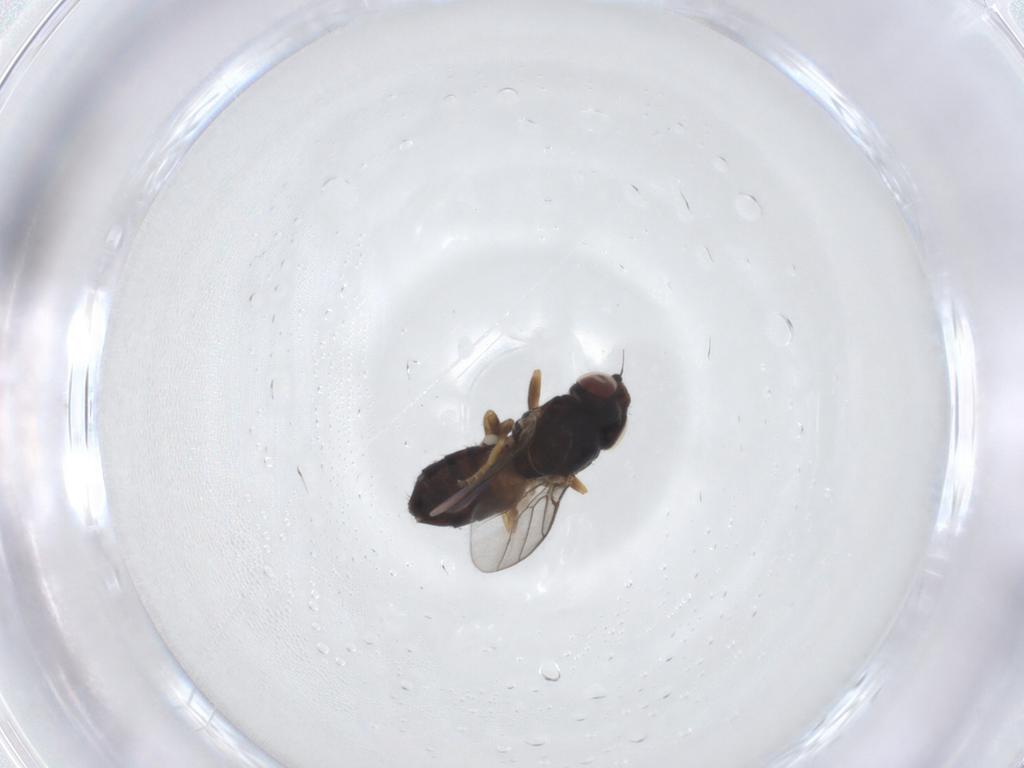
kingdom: Animalia
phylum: Arthropoda
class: Insecta
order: Diptera
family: Chloropidae
